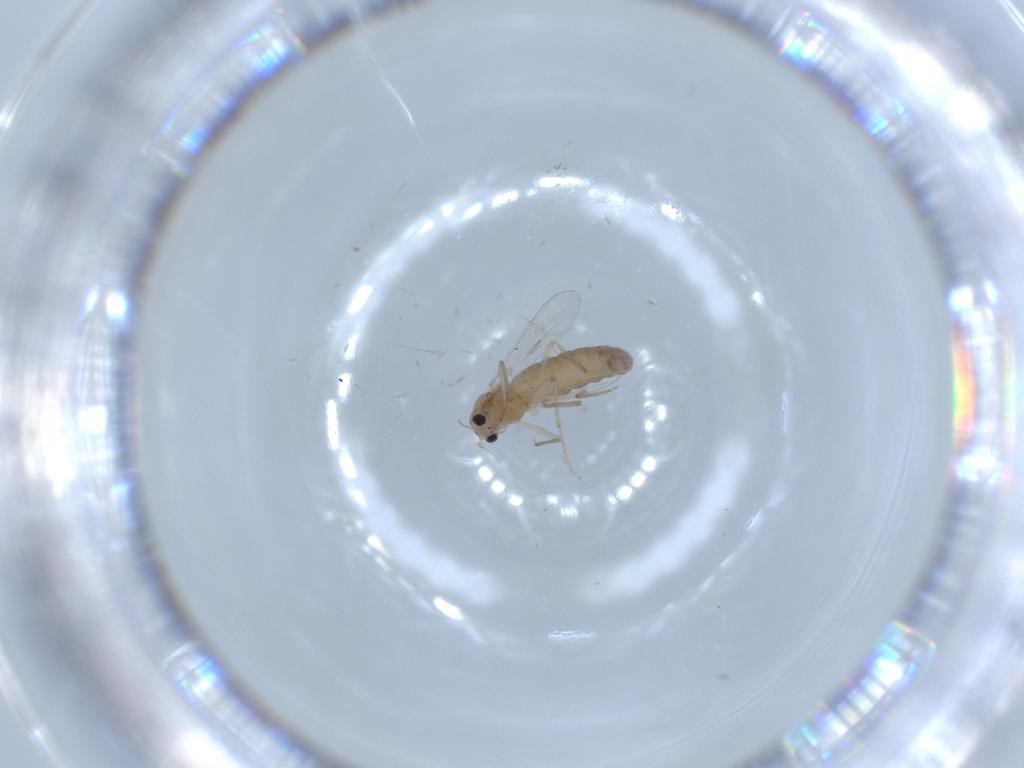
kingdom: Animalia
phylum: Arthropoda
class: Insecta
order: Diptera
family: Chironomidae
